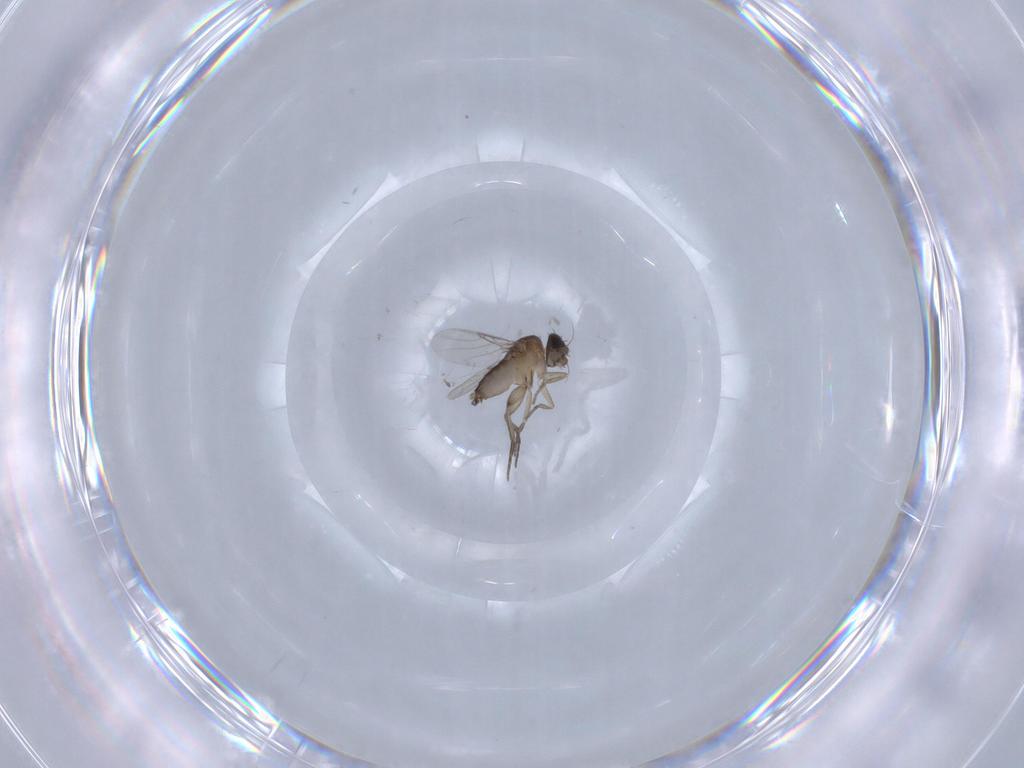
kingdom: Animalia
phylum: Arthropoda
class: Insecta
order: Diptera
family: Phoridae
